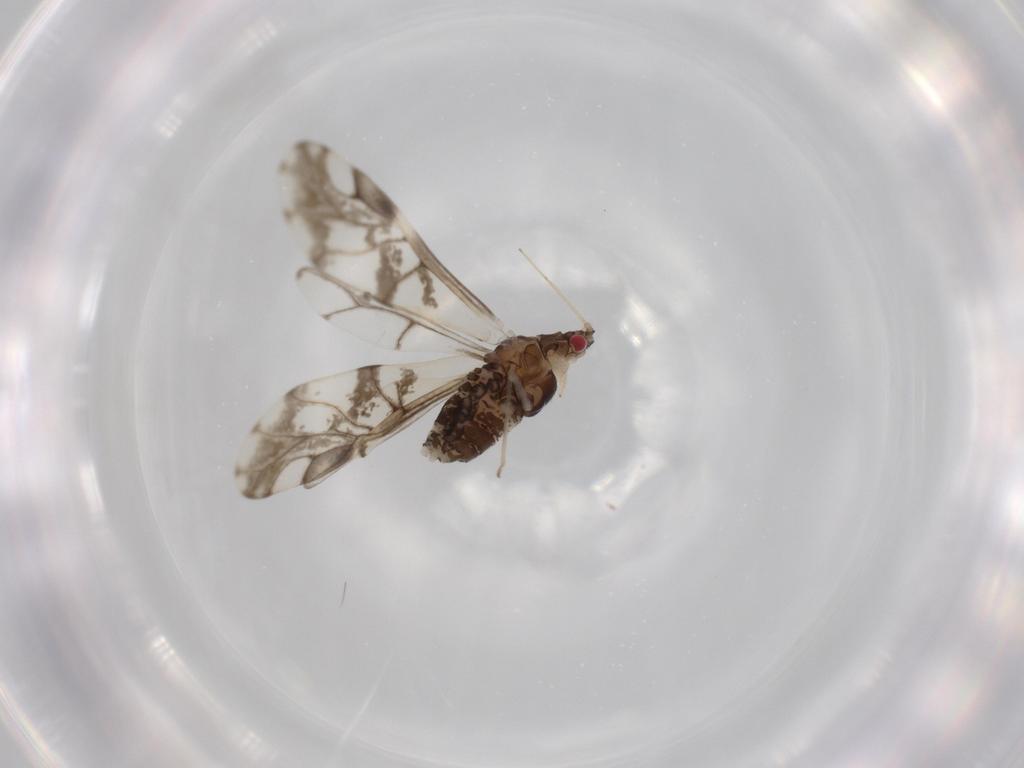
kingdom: Animalia
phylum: Arthropoda
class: Insecta
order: Hemiptera
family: Aphididae
